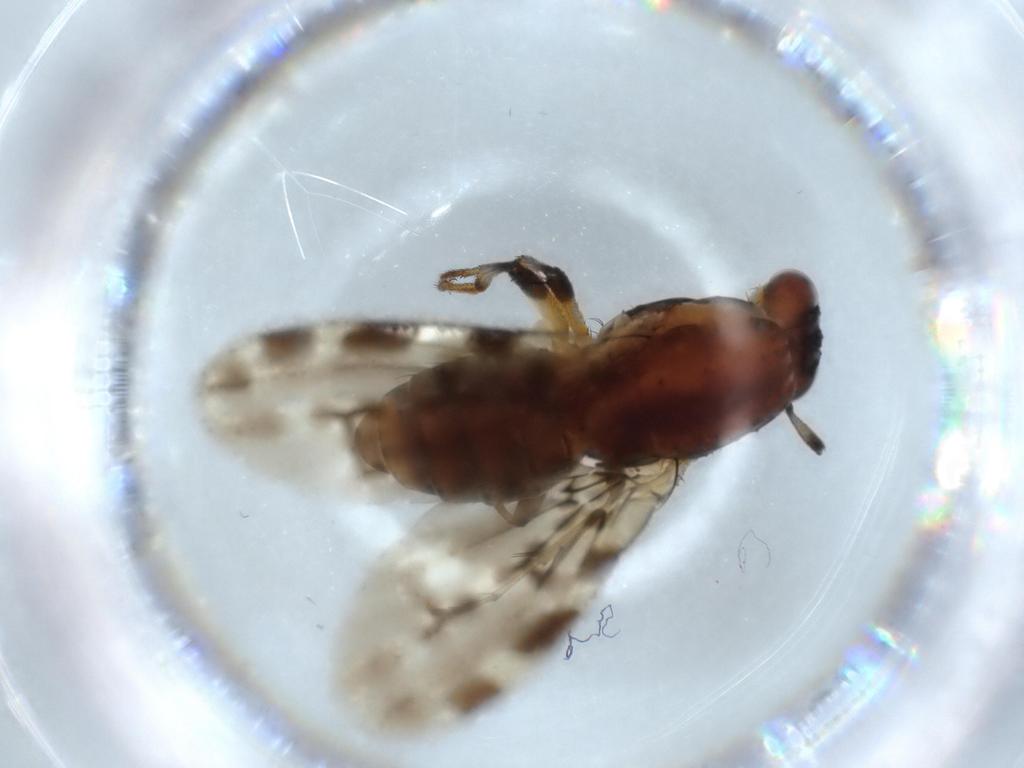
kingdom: Animalia
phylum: Arthropoda
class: Insecta
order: Diptera
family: Heleomyzidae
